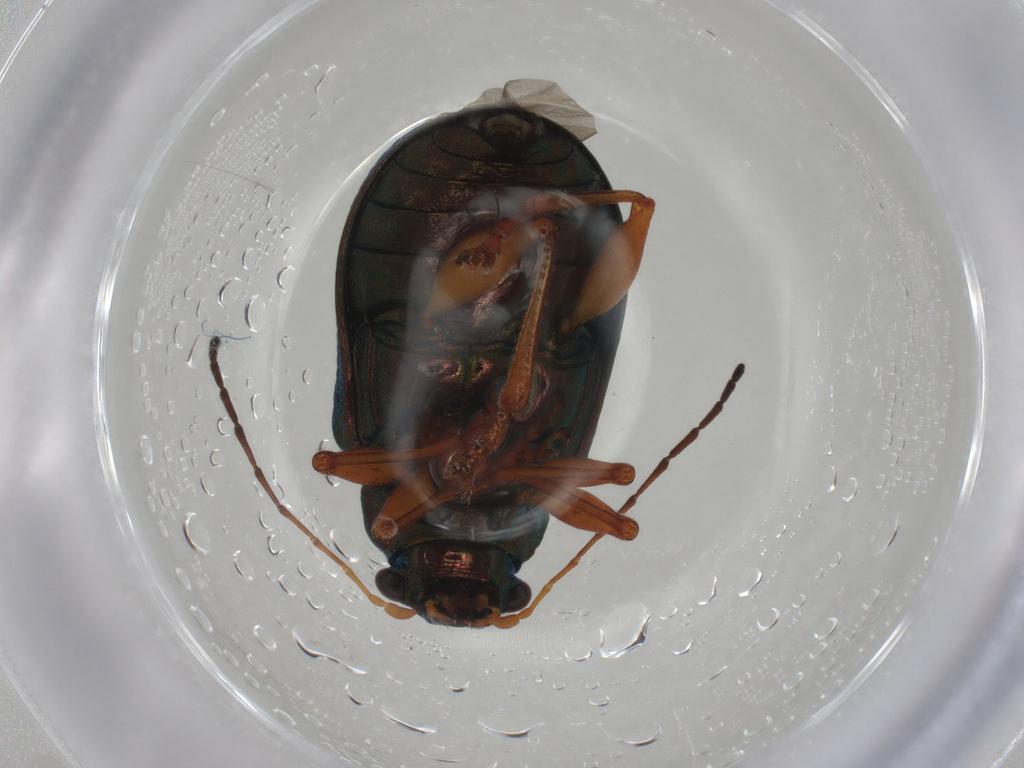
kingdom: Animalia
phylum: Arthropoda
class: Insecta
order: Coleoptera
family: Chrysomelidae
